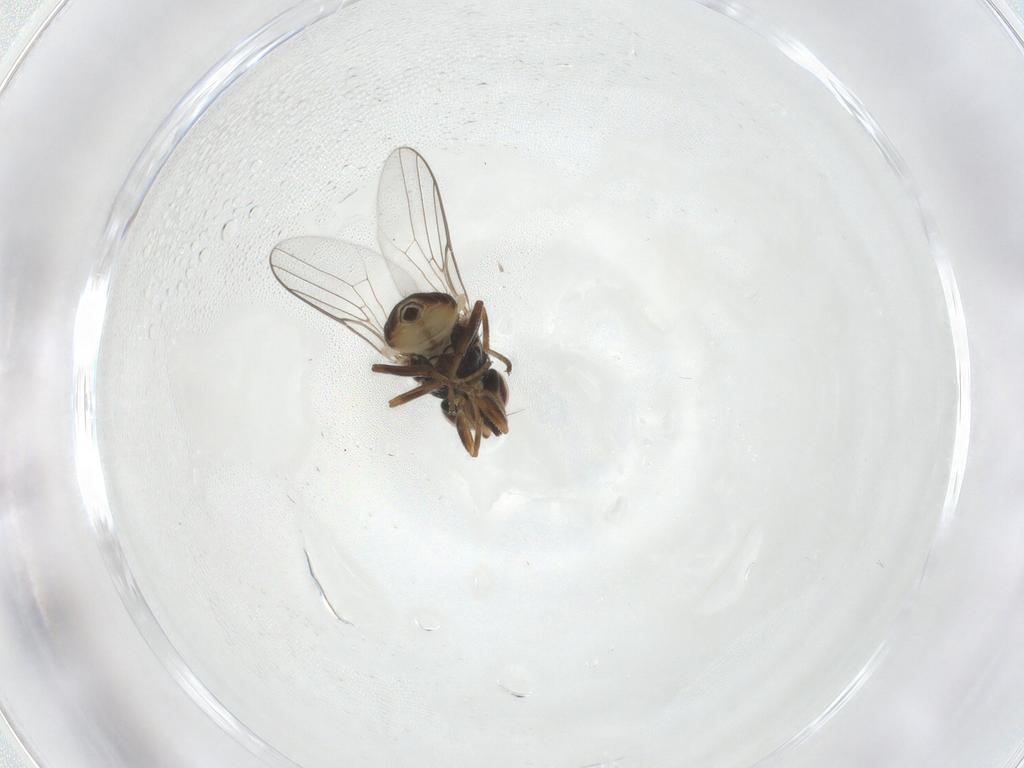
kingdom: Animalia
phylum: Arthropoda
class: Insecta
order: Diptera
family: Chloropidae
